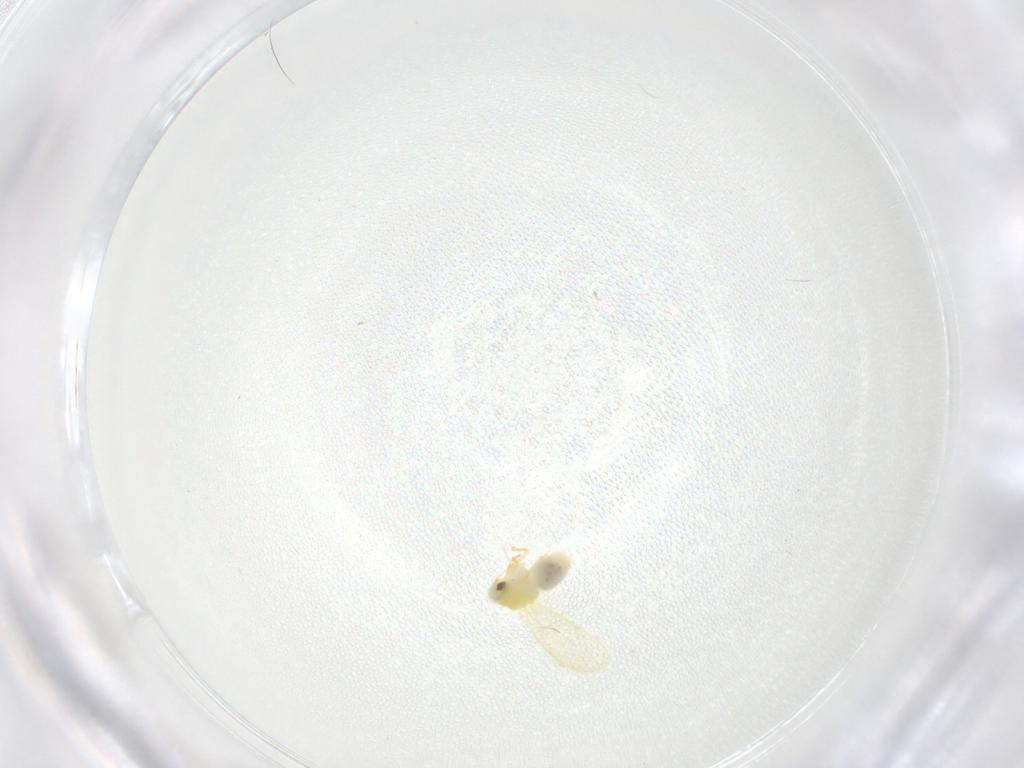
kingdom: Animalia
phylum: Arthropoda
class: Insecta
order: Hemiptera
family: Aleyrodidae
